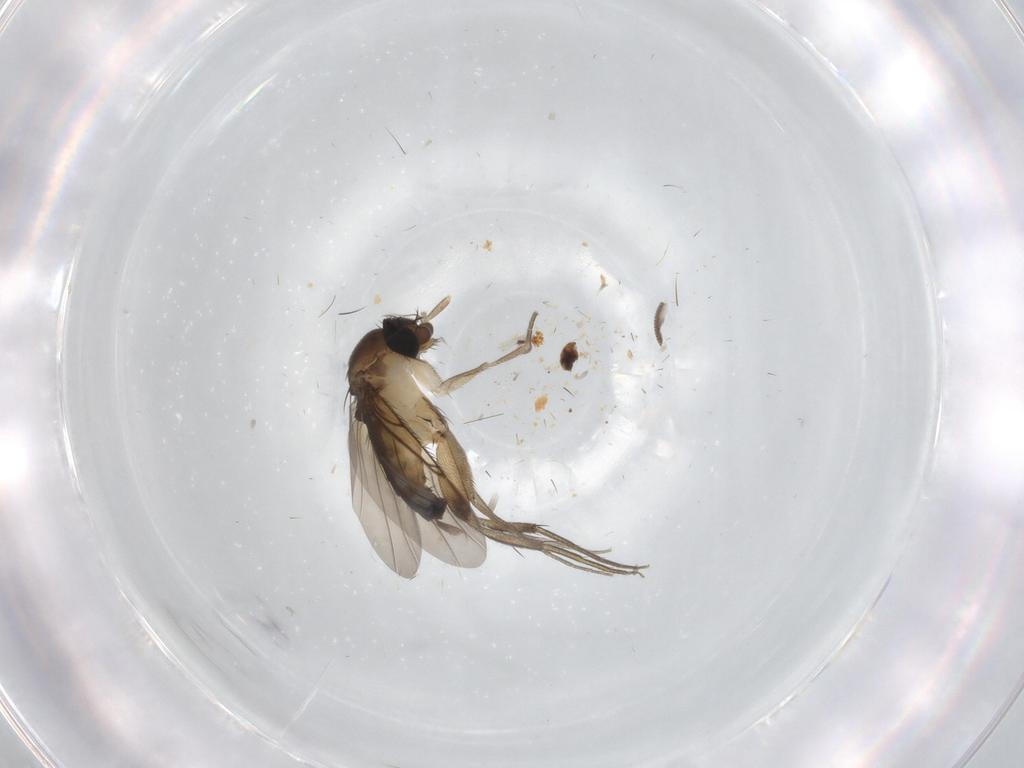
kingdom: Animalia
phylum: Arthropoda
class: Insecta
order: Diptera
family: Phoridae
